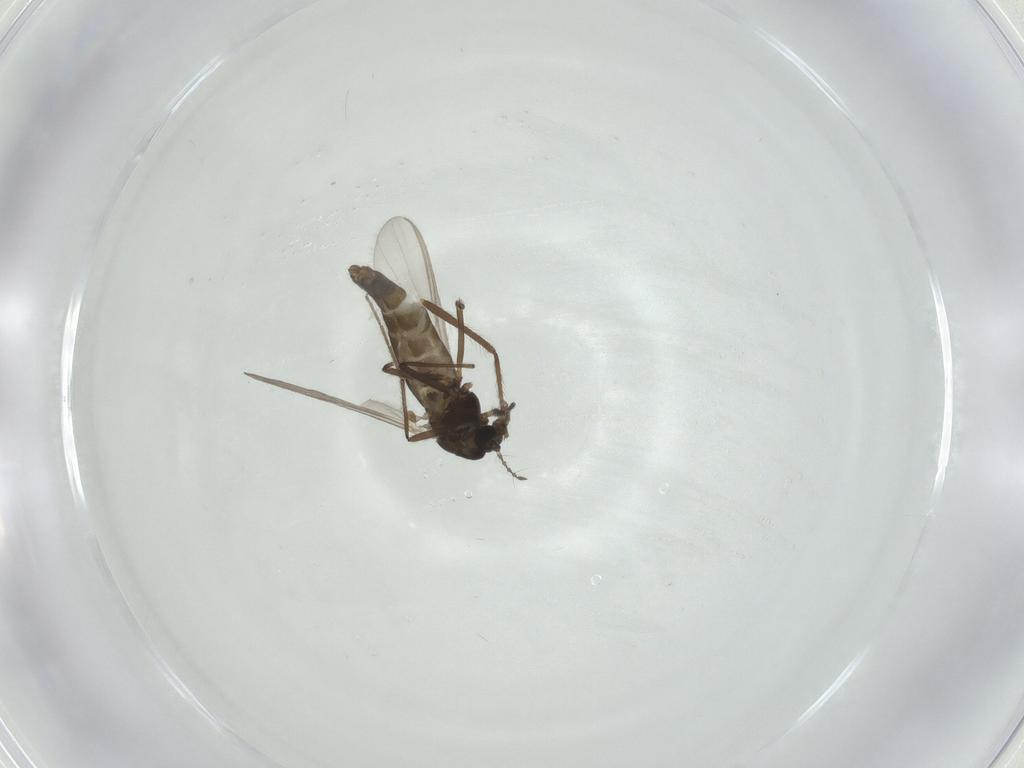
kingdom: Animalia
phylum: Arthropoda
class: Insecta
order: Diptera
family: Chironomidae
